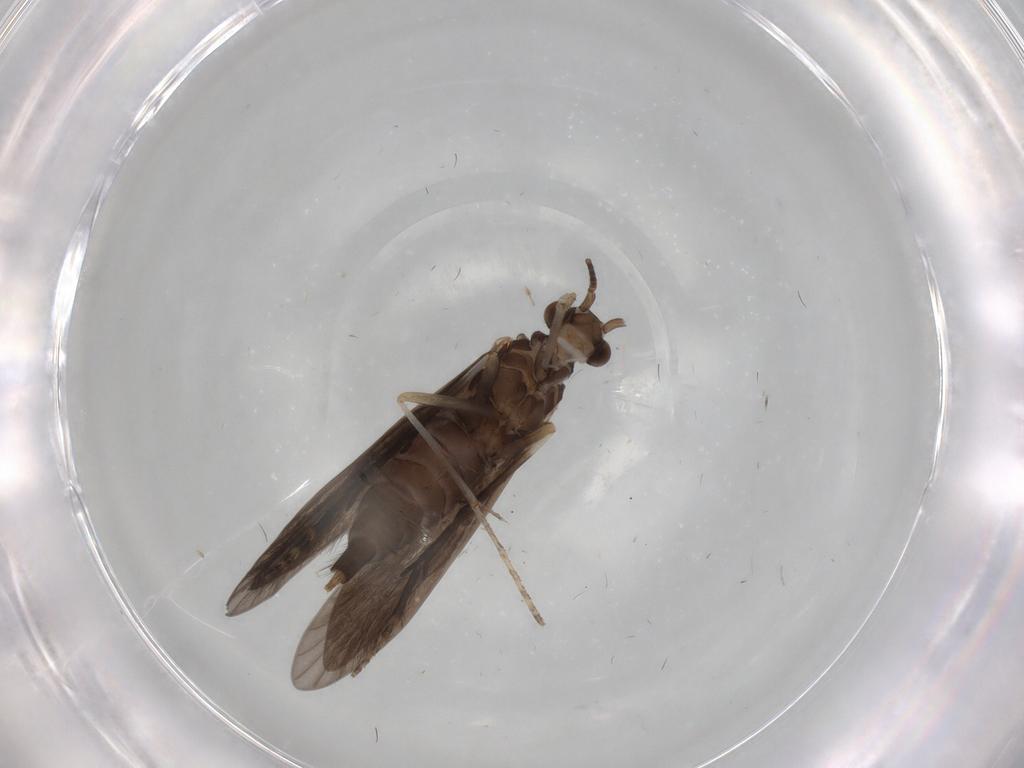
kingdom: Animalia
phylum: Arthropoda
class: Insecta
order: Trichoptera
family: Xiphocentronidae
